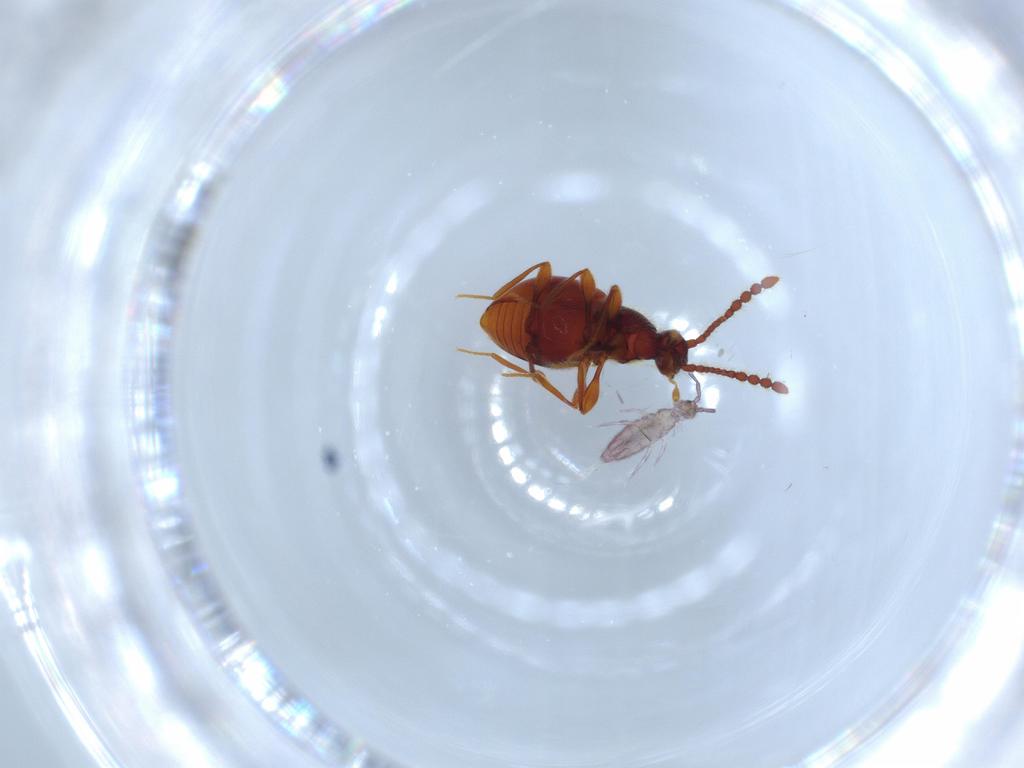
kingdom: Animalia
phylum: Arthropoda
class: Collembola
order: Entomobryomorpha
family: Entomobryidae
